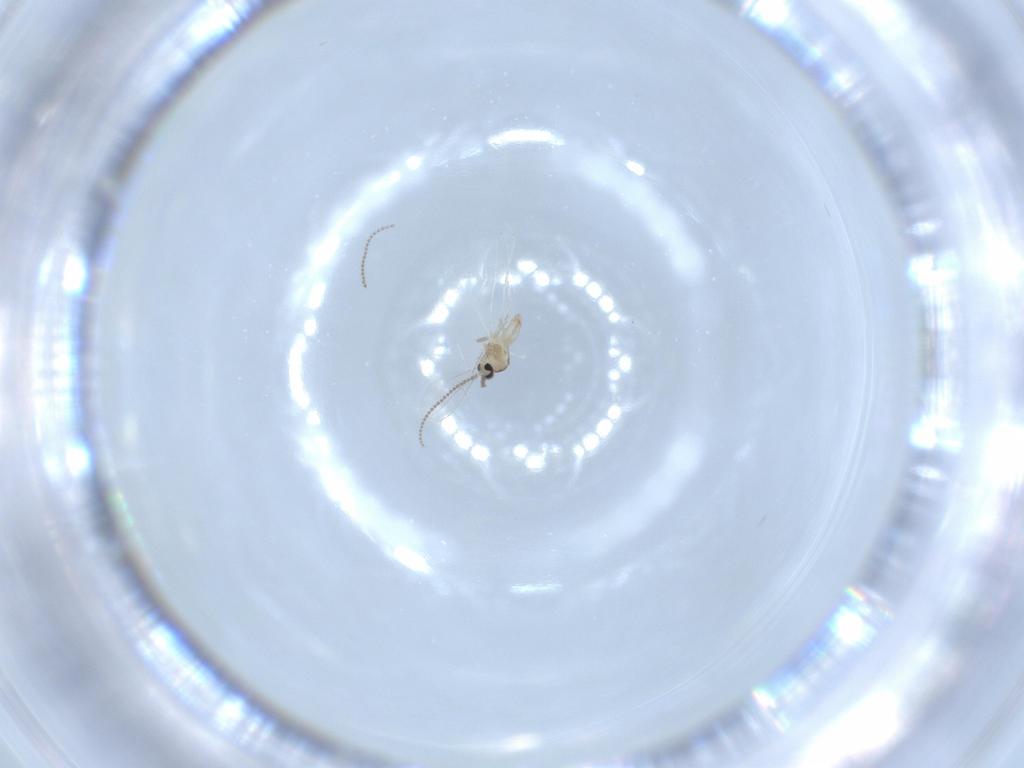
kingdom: Animalia
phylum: Arthropoda
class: Insecta
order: Diptera
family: Cecidomyiidae
